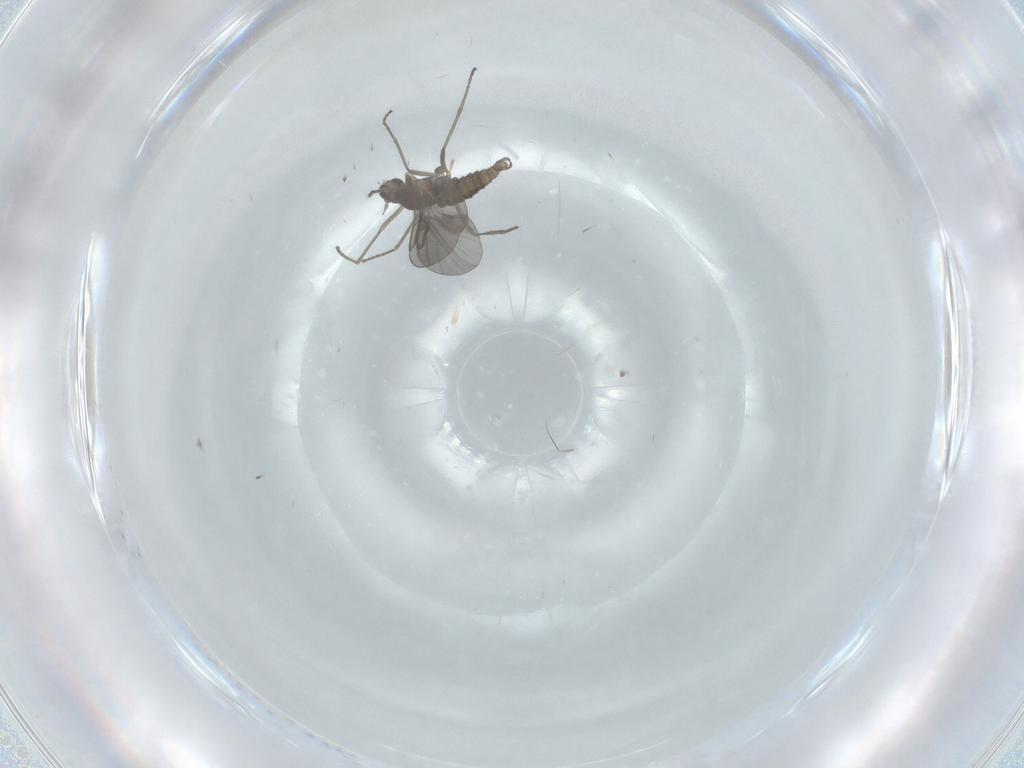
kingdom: Animalia
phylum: Arthropoda
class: Insecta
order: Diptera
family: Cecidomyiidae
